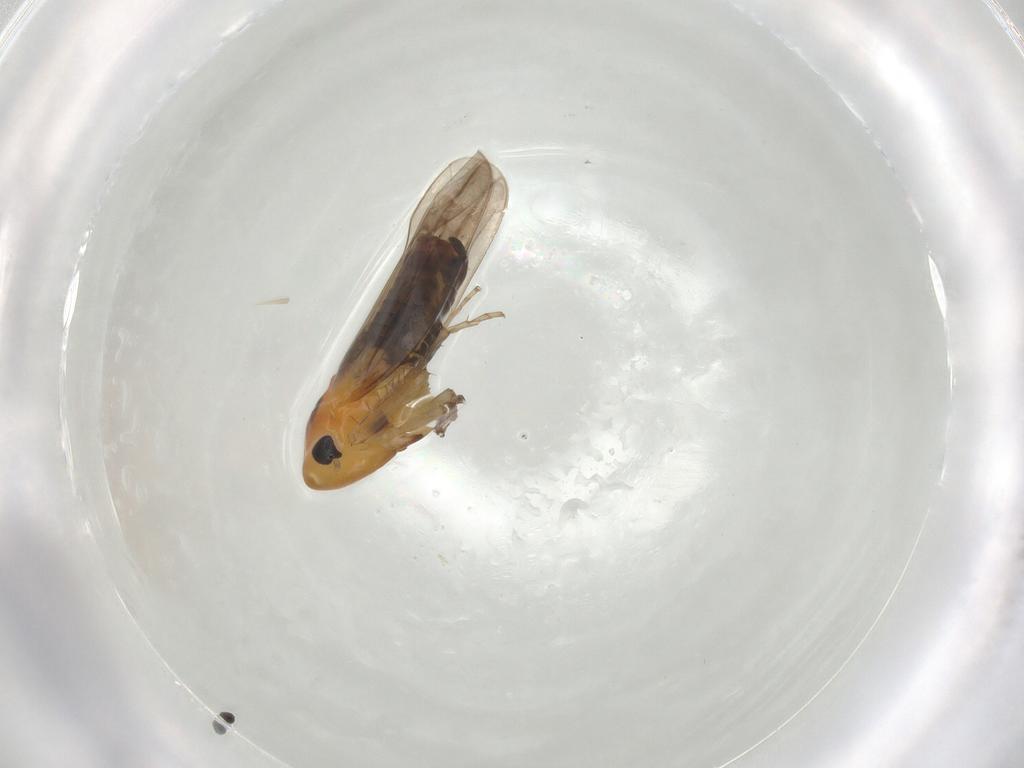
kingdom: Animalia
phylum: Arthropoda
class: Insecta
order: Hemiptera
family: Cicadellidae
